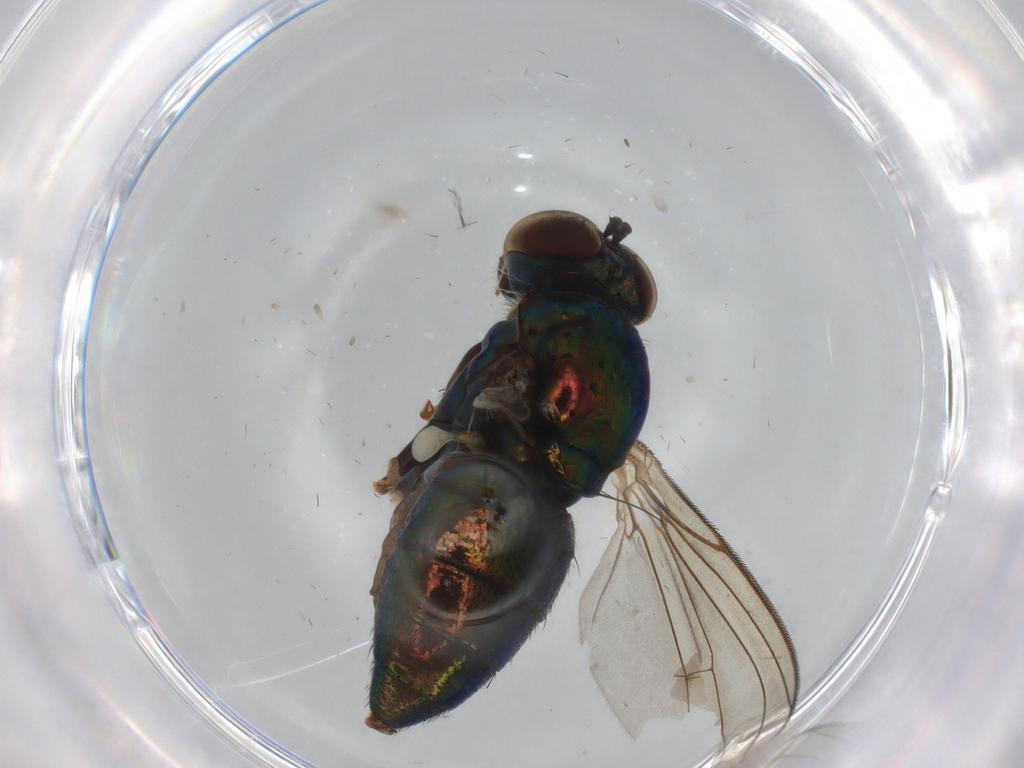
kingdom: Animalia
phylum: Arthropoda
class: Insecta
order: Diptera
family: Dolichopodidae
